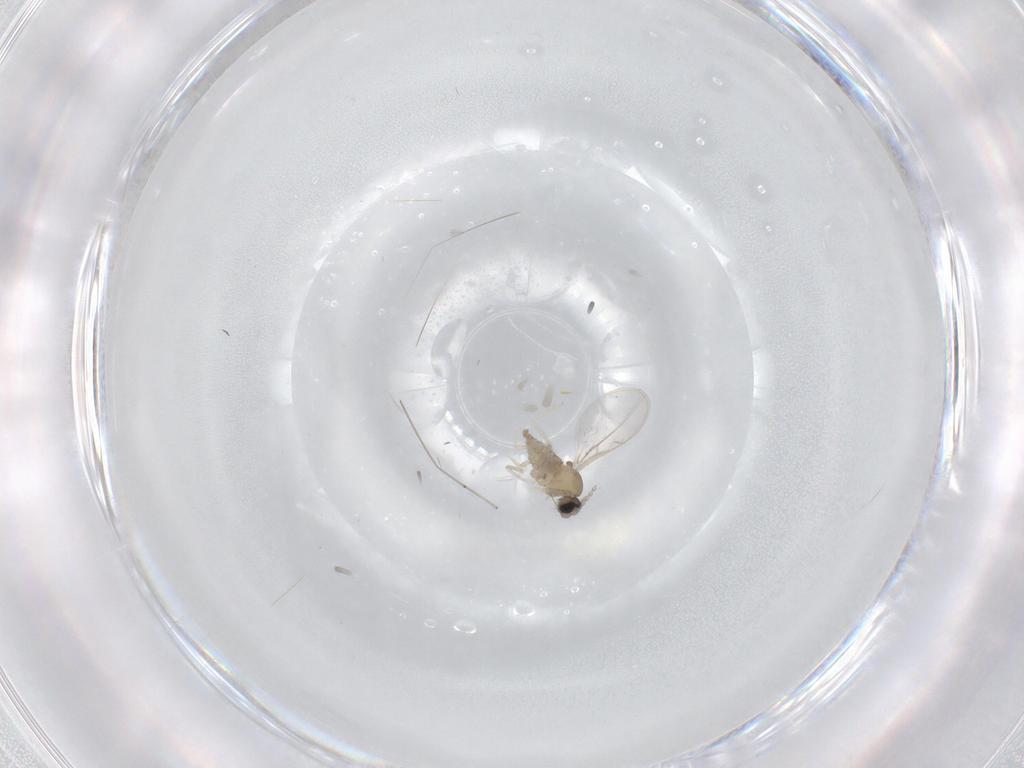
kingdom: Animalia
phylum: Arthropoda
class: Insecta
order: Diptera
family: Cecidomyiidae
